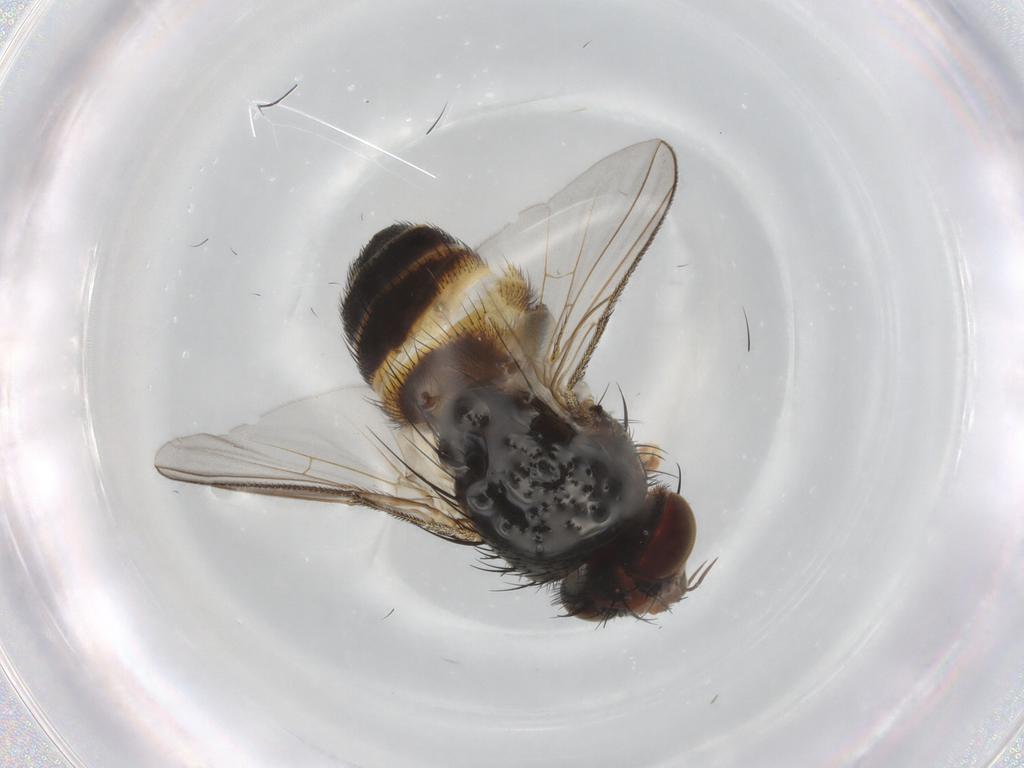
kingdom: Animalia
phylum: Arthropoda
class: Insecta
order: Diptera
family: Tachinidae
